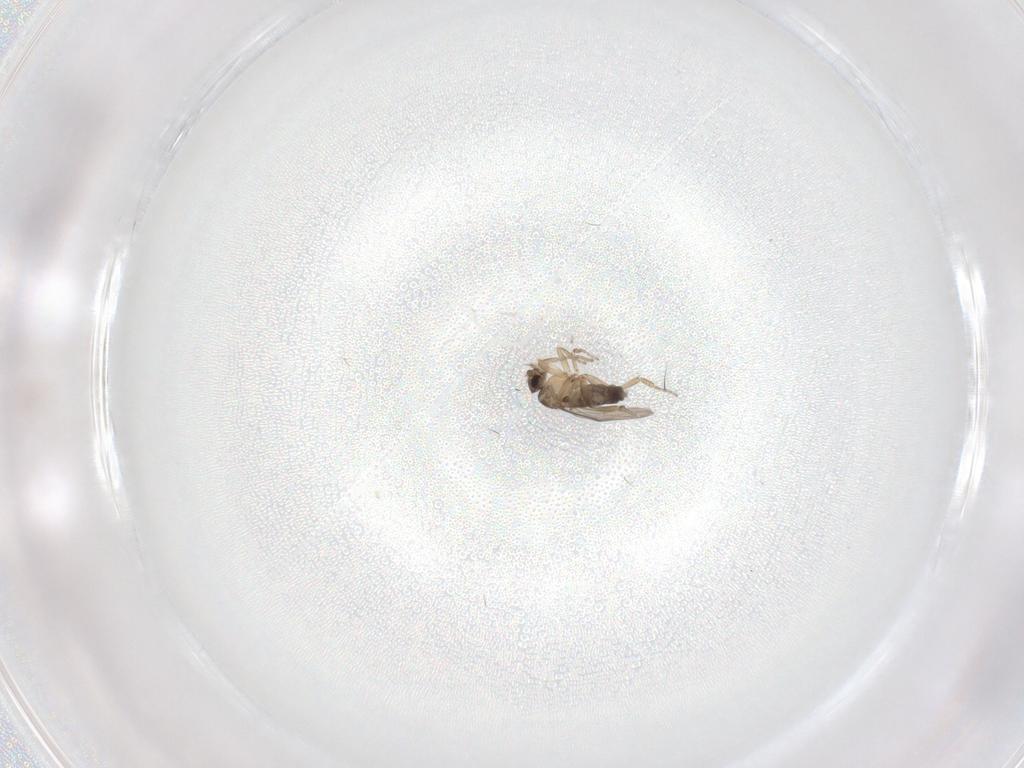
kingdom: Animalia
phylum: Arthropoda
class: Insecta
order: Diptera
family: Phoridae
